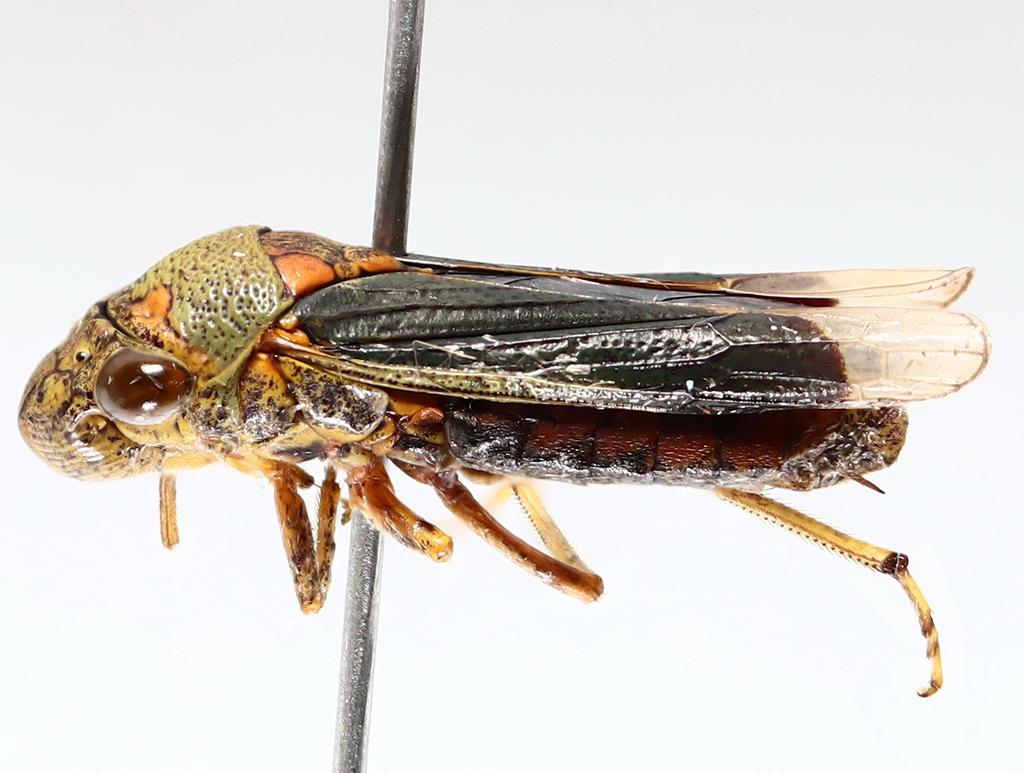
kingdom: Animalia
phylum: Arthropoda
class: Insecta
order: Diptera
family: Psychodidae
